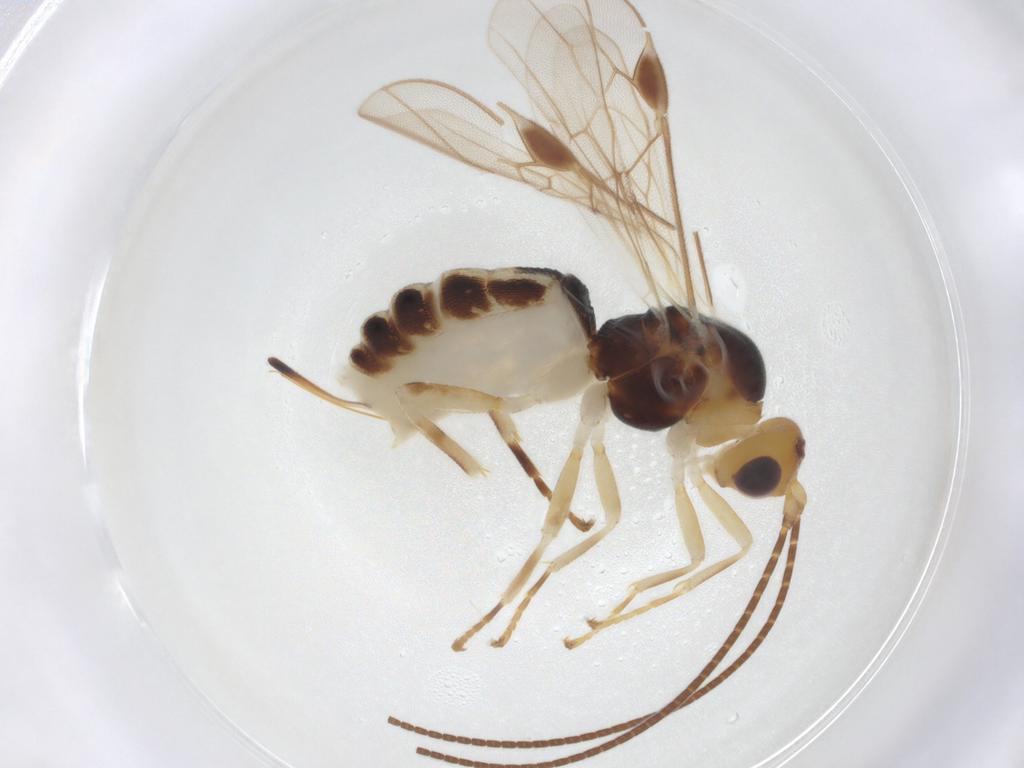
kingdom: Animalia
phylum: Arthropoda
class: Insecta
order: Hymenoptera
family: Braconidae
